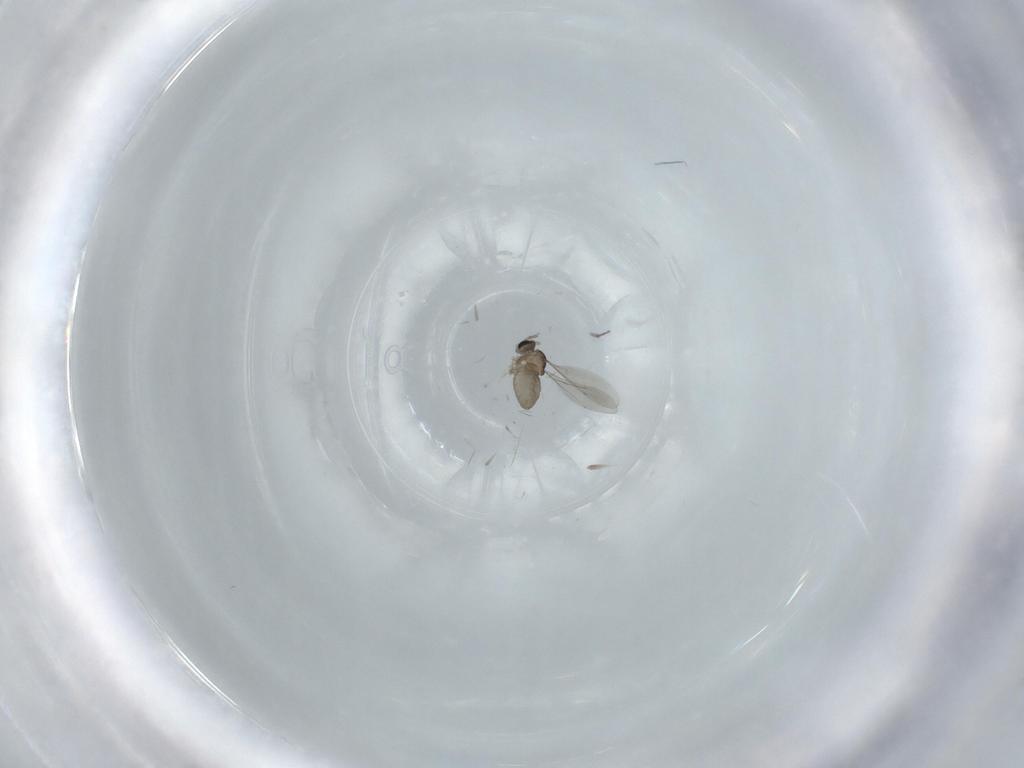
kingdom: Animalia
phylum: Arthropoda
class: Insecta
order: Diptera
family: Cecidomyiidae
